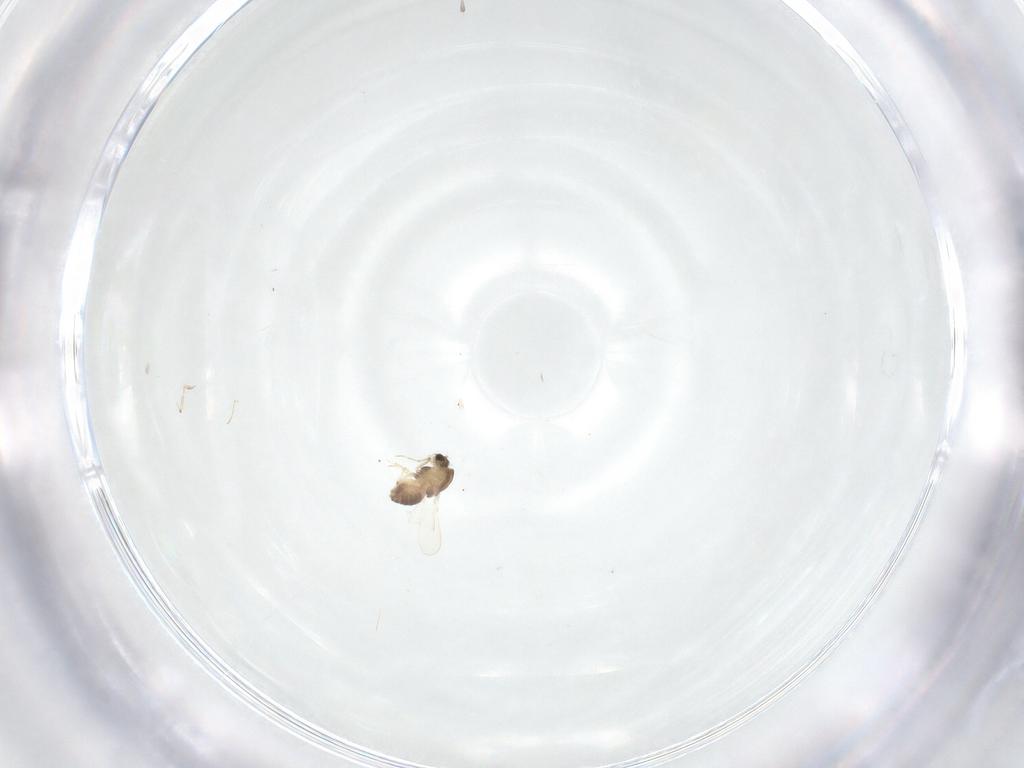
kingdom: Animalia
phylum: Arthropoda
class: Insecta
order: Diptera
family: Chironomidae
